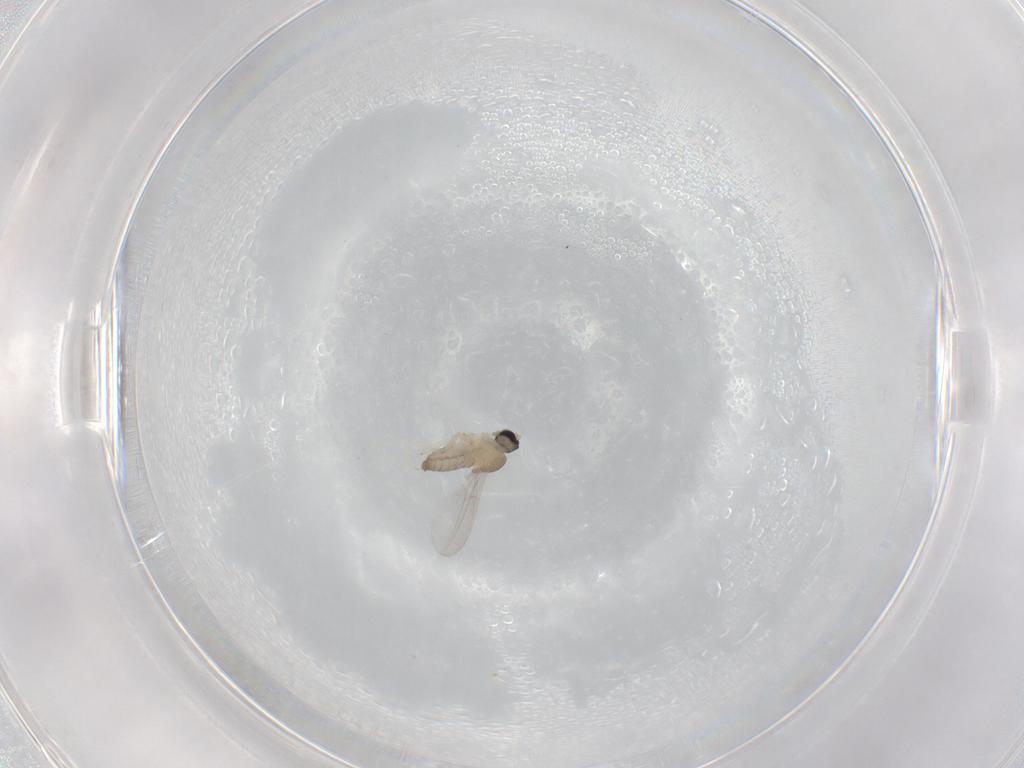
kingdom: Animalia
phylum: Arthropoda
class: Insecta
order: Diptera
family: Cecidomyiidae
